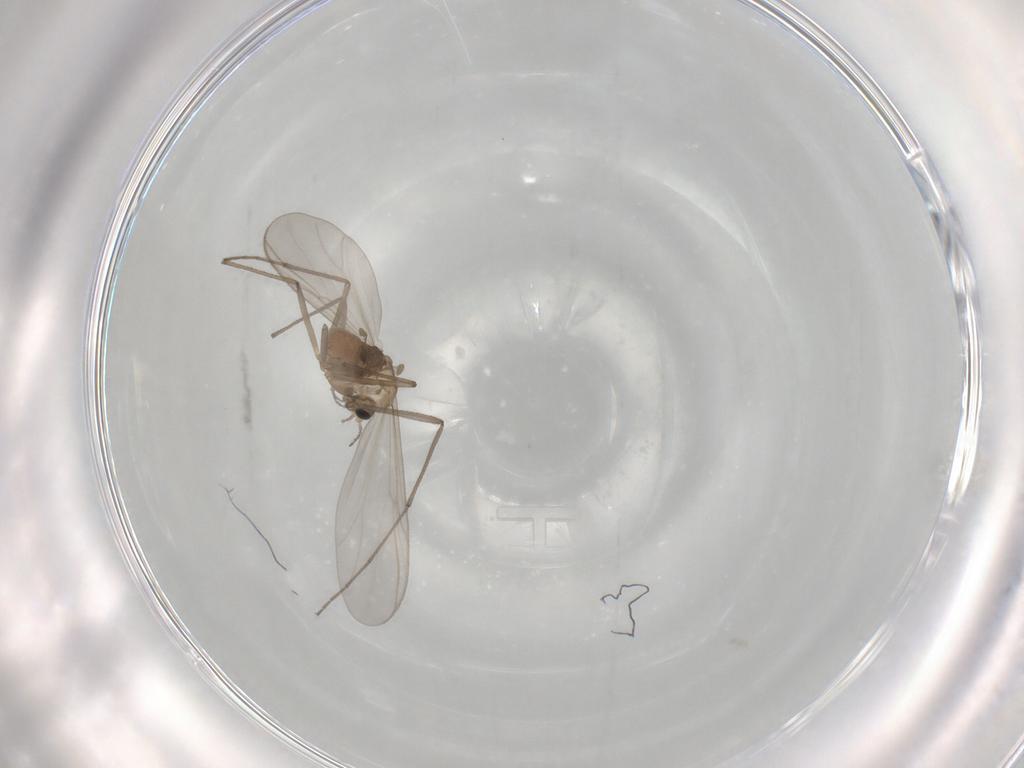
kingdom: Animalia
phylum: Arthropoda
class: Insecta
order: Diptera
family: Chironomidae
